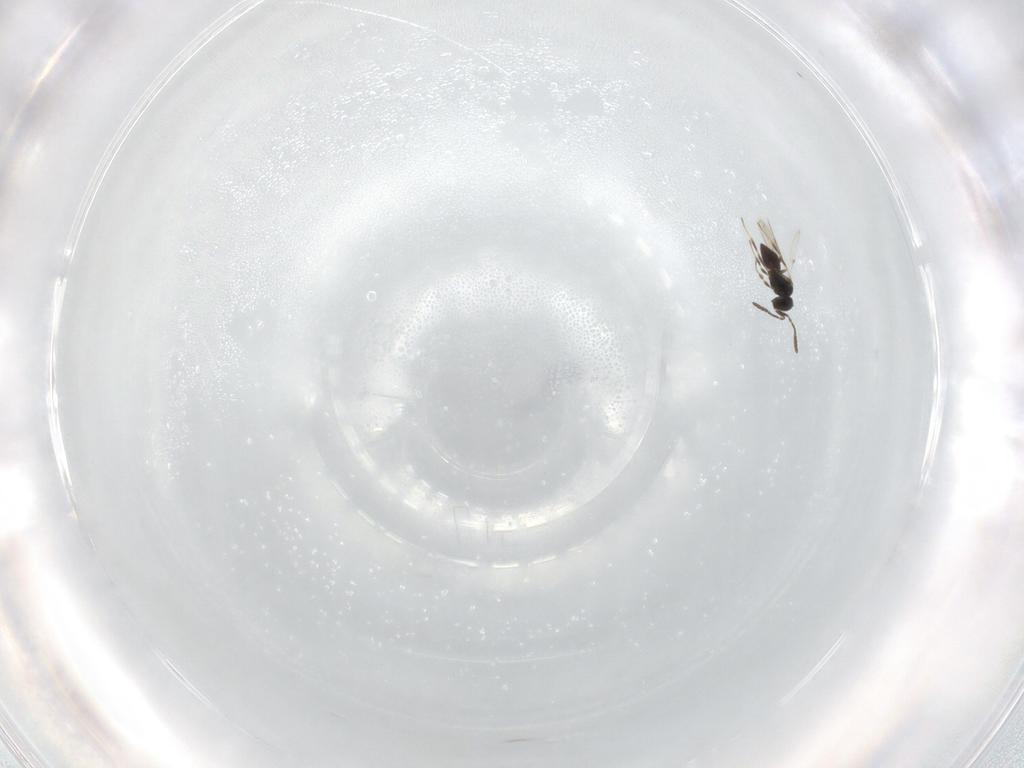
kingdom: Animalia
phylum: Arthropoda
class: Insecta
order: Hymenoptera
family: Scelionidae
